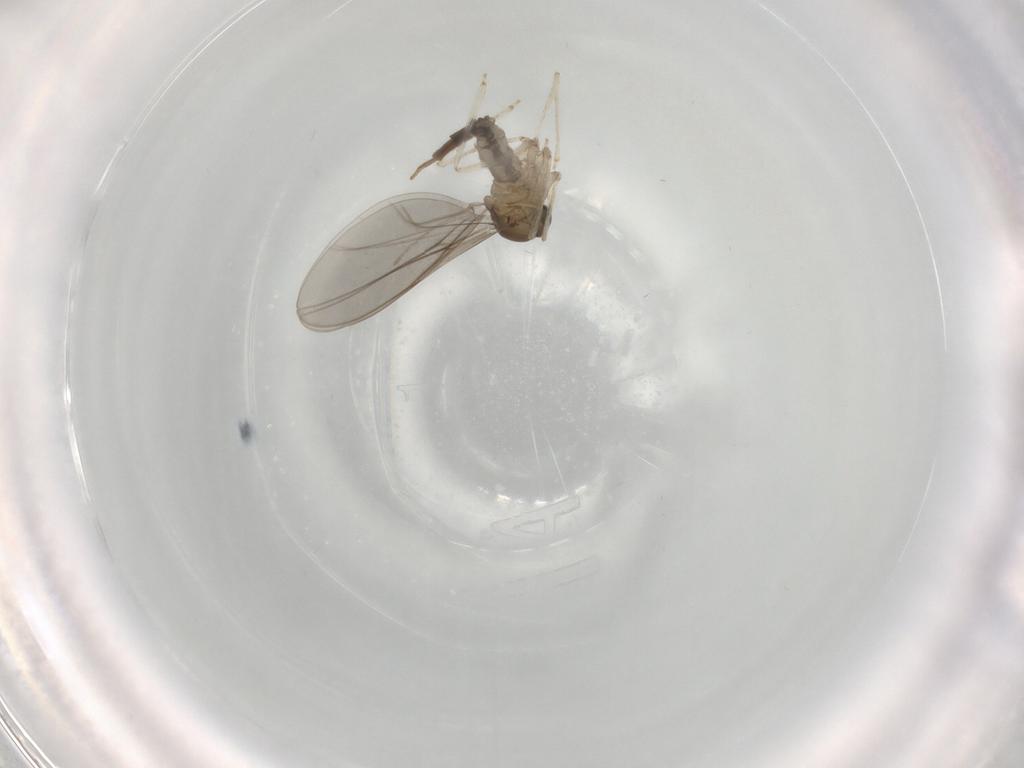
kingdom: Animalia
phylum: Arthropoda
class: Insecta
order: Diptera
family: Cecidomyiidae
